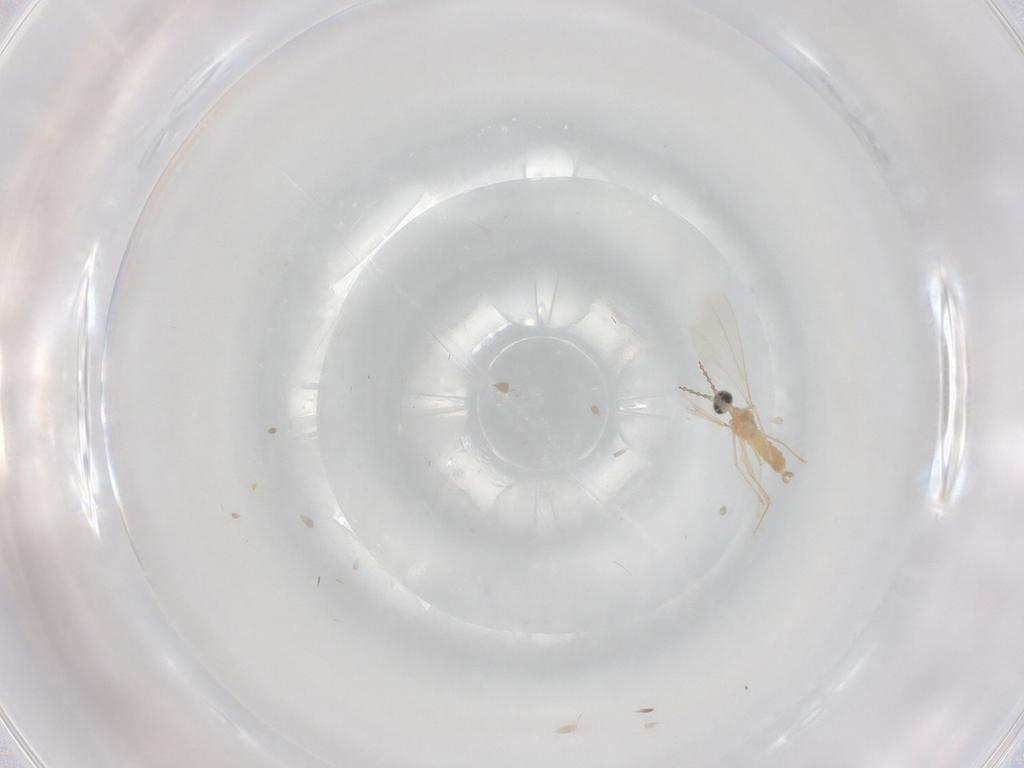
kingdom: Animalia
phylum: Arthropoda
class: Insecta
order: Diptera
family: Cecidomyiidae
